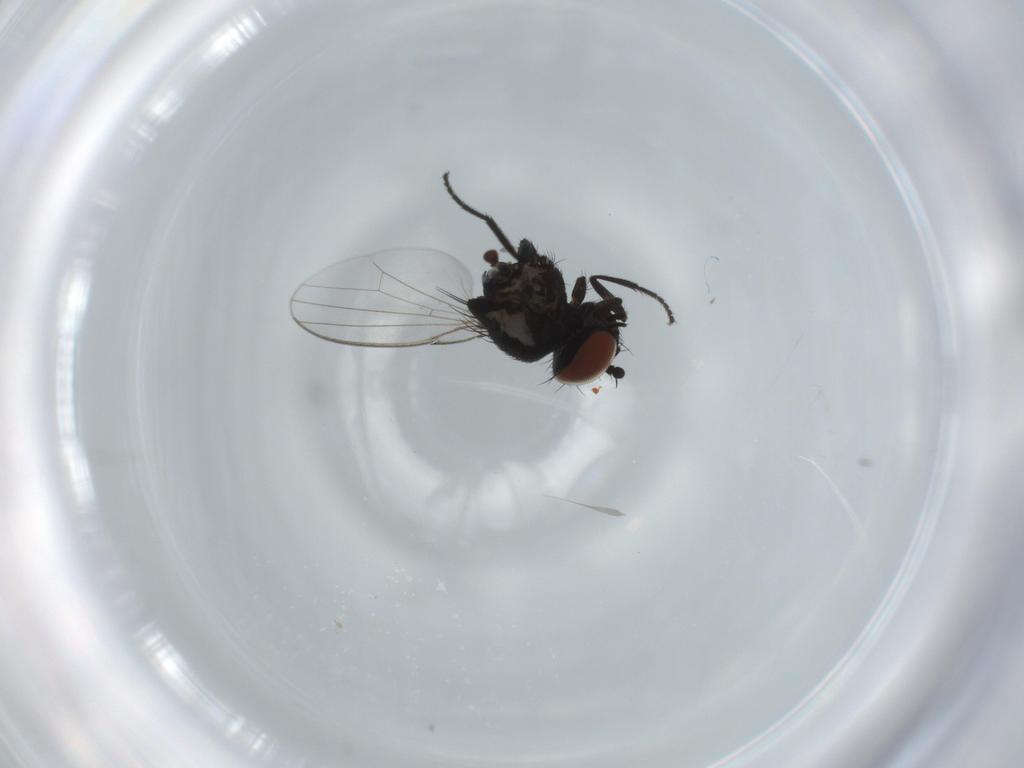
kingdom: Animalia
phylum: Arthropoda
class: Insecta
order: Diptera
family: Milichiidae
